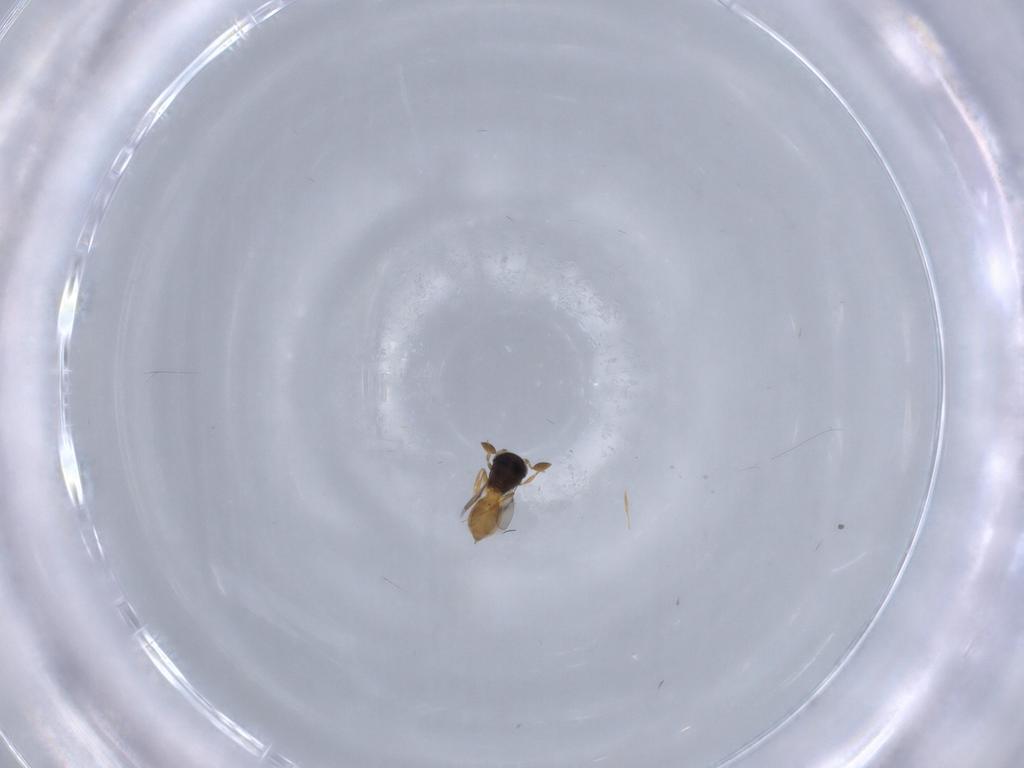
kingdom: Animalia
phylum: Arthropoda
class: Insecta
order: Hymenoptera
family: Scelionidae
